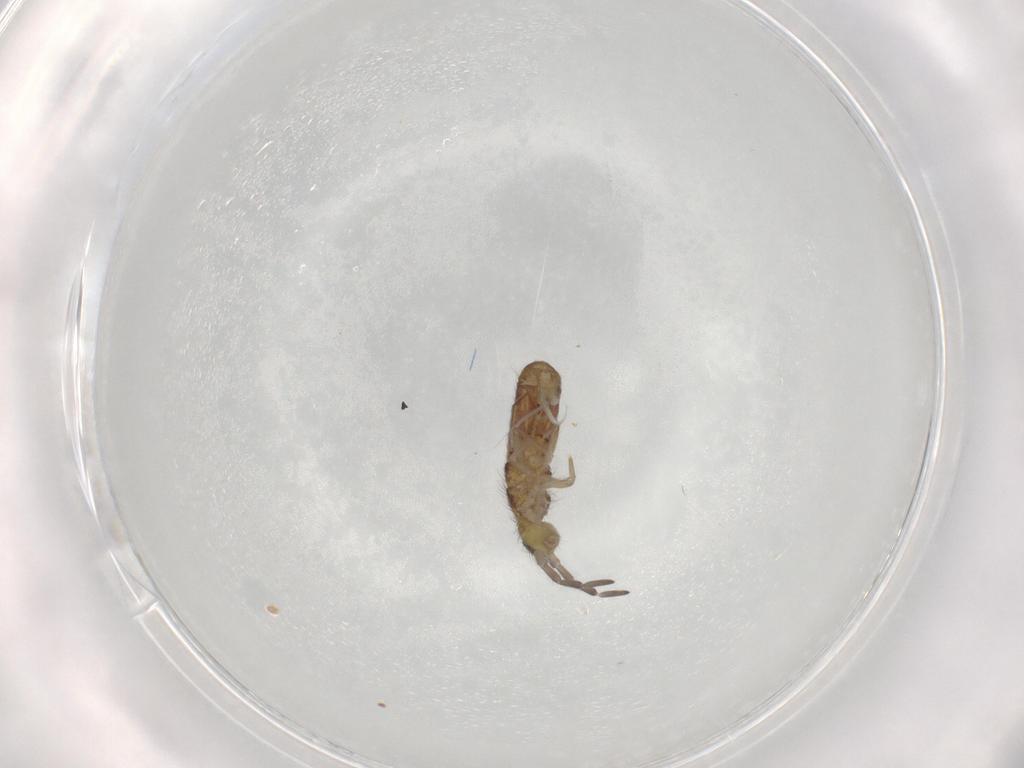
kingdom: Animalia
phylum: Arthropoda
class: Collembola
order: Entomobryomorpha
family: Isotomidae
